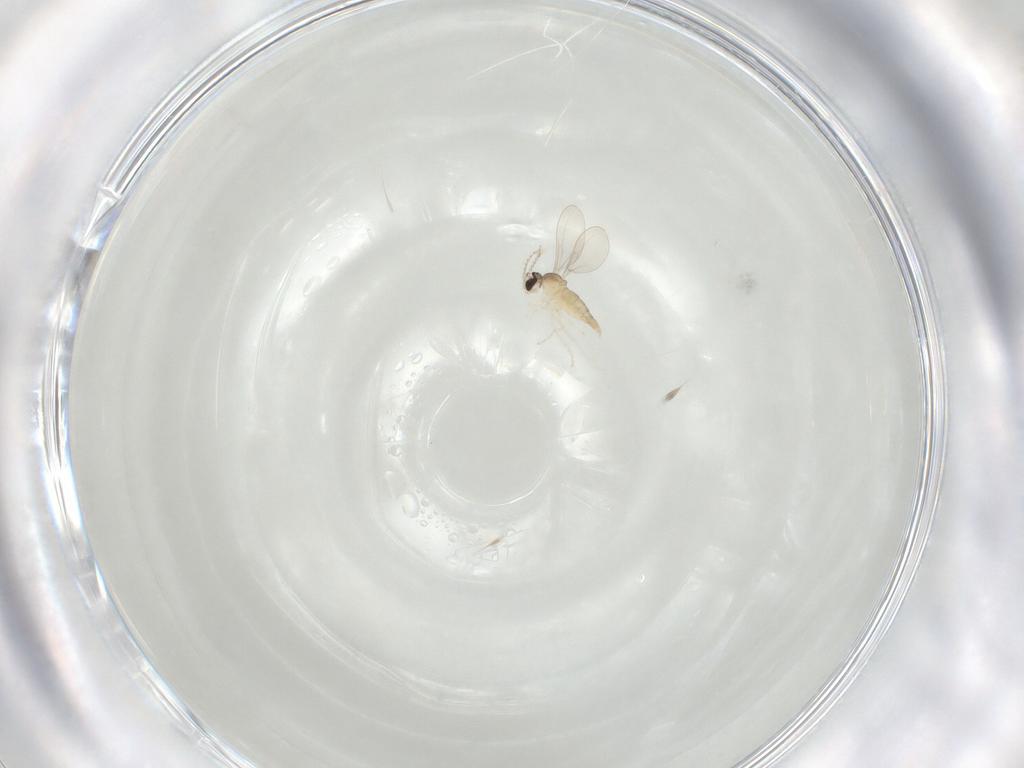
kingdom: Animalia
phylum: Arthropoda
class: Insecta
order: Diptera
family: Cecidomyiidae
